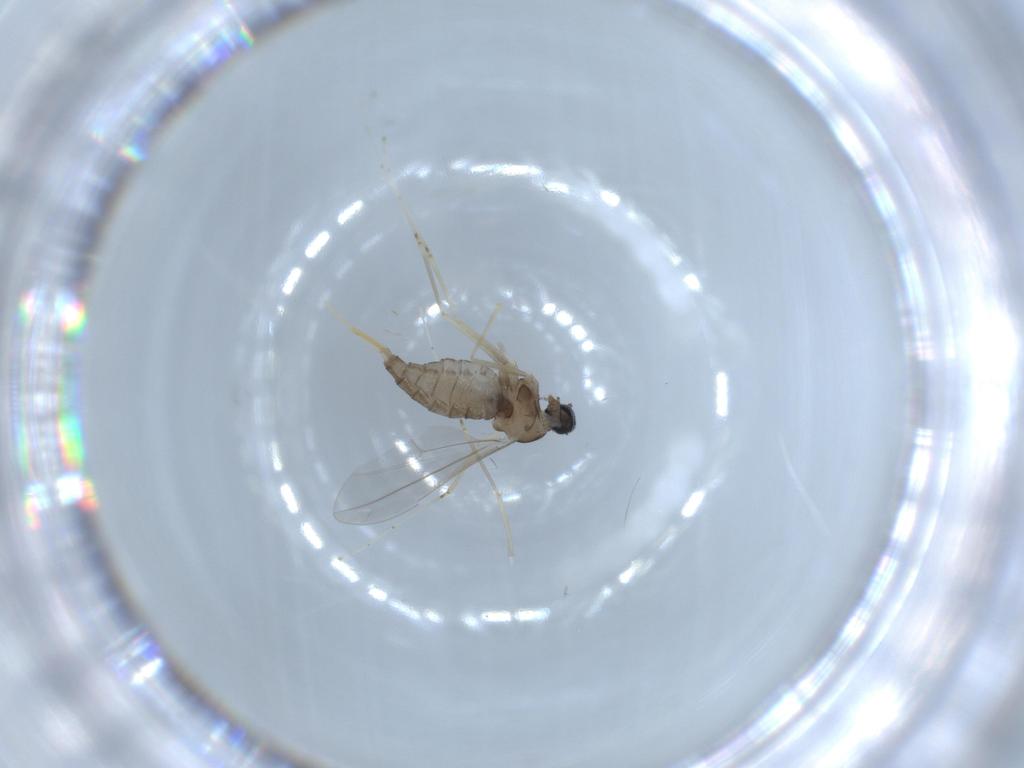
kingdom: Animalia
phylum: Arthropoda
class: Insecta
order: Diptera
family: Cecidomyiidae
